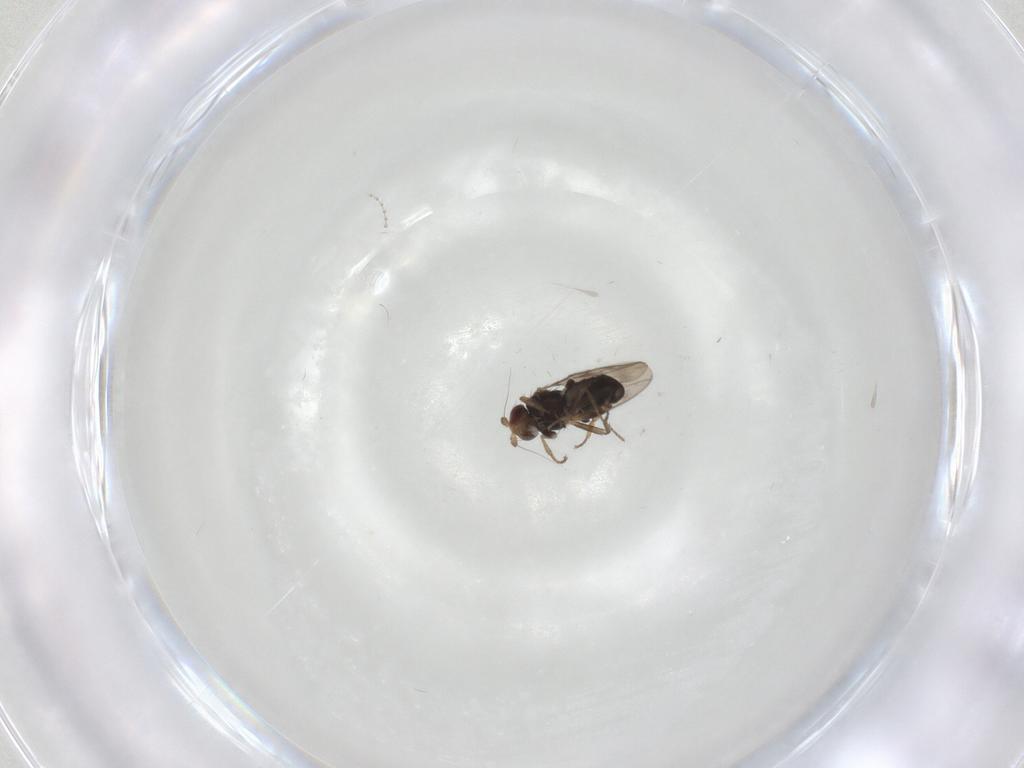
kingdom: Animalia
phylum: Arthropoda
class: Insecta
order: Diptera
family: Sphaeroceridae
